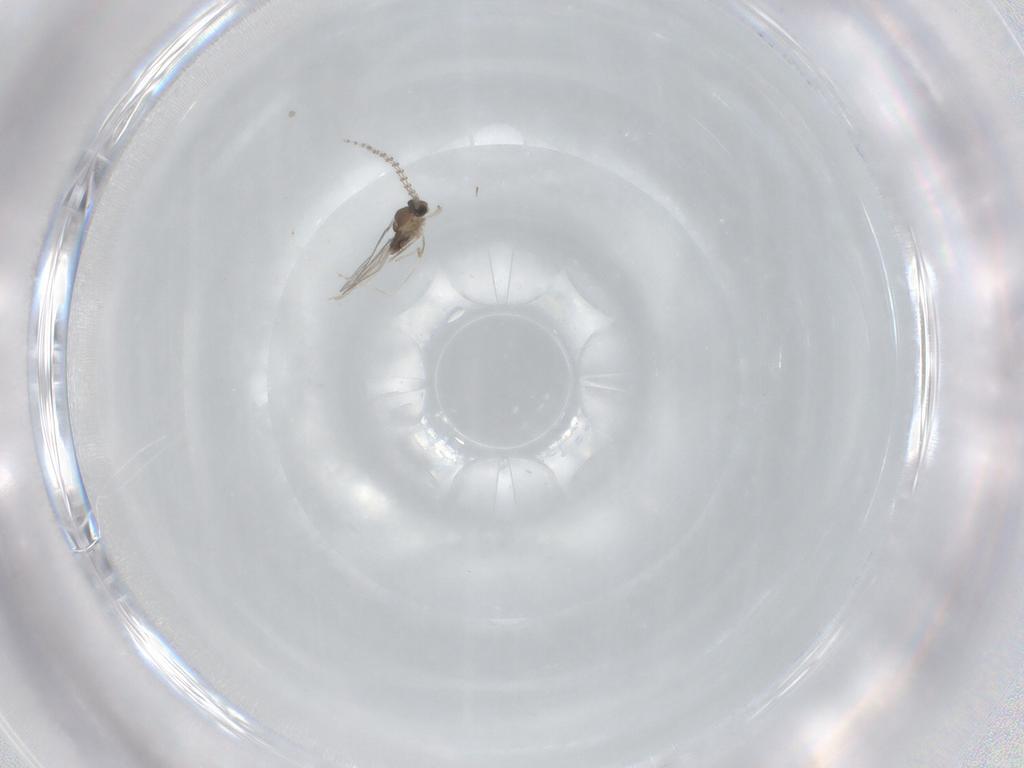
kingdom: Animalia
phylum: Arthropoda
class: Insecta
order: Diptera
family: Cecidomyiidae
